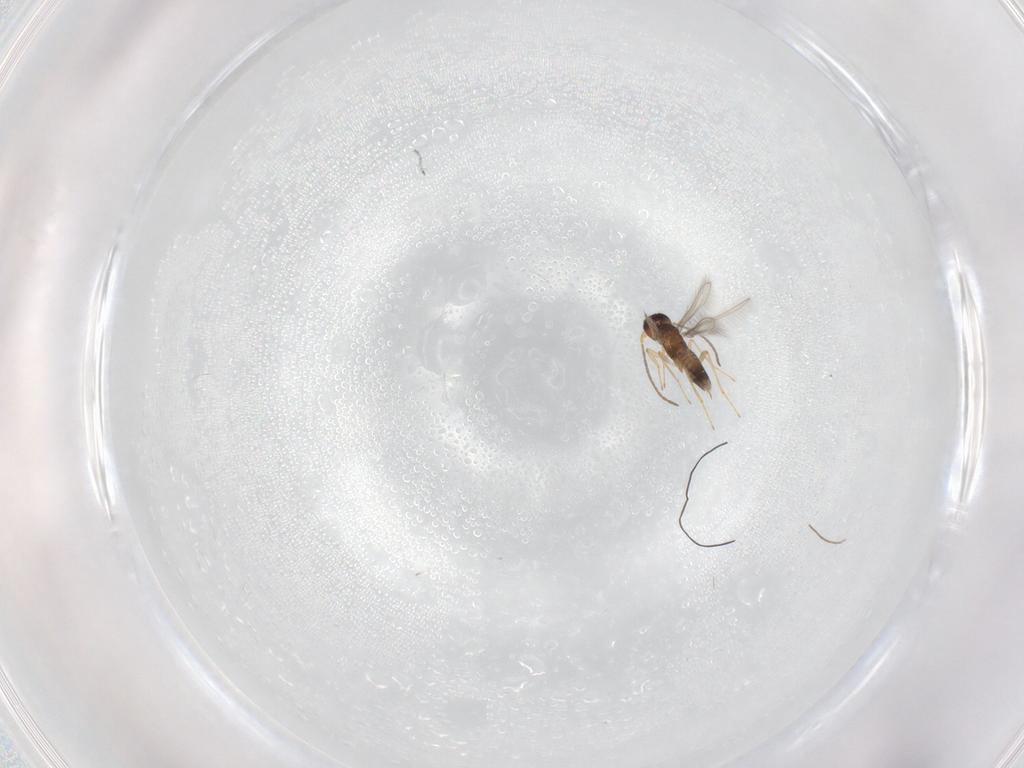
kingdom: Animalia
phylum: Arthropoda
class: Insecta
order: Hymenoptera
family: Mymaridae
